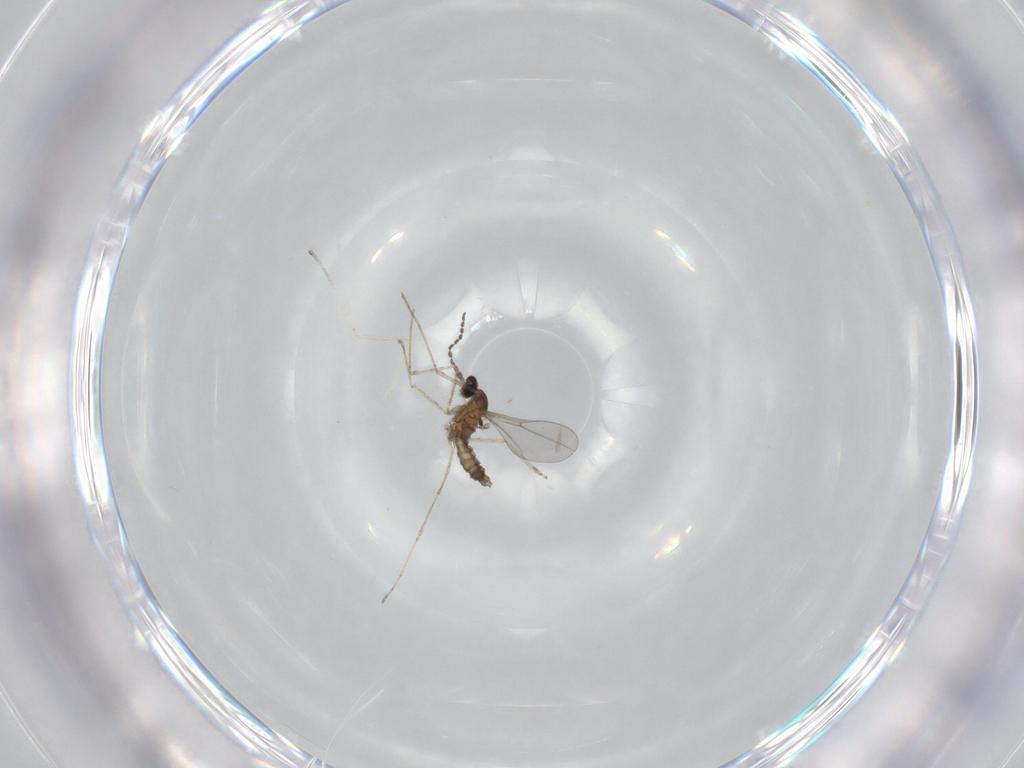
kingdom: Animalia
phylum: Arthropoda
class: Insecta
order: Diptera
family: Cecidomyiidae
